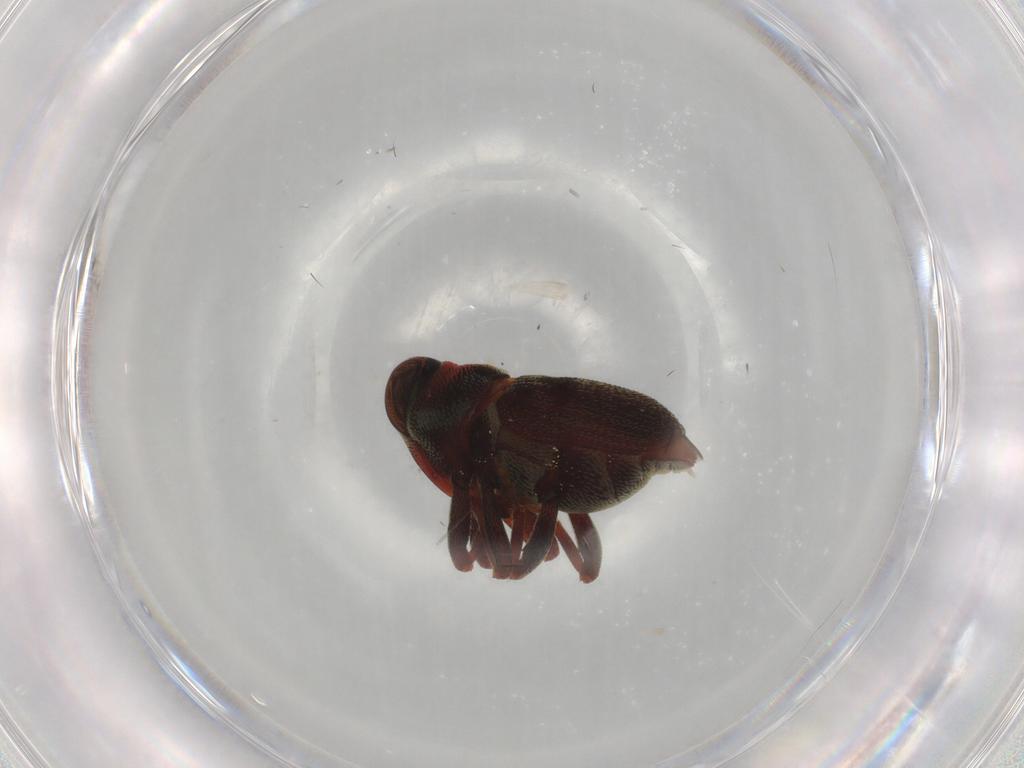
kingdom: Animalia
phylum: Arthropoda
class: Insecta
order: Coleoptera
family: Curculionidae
